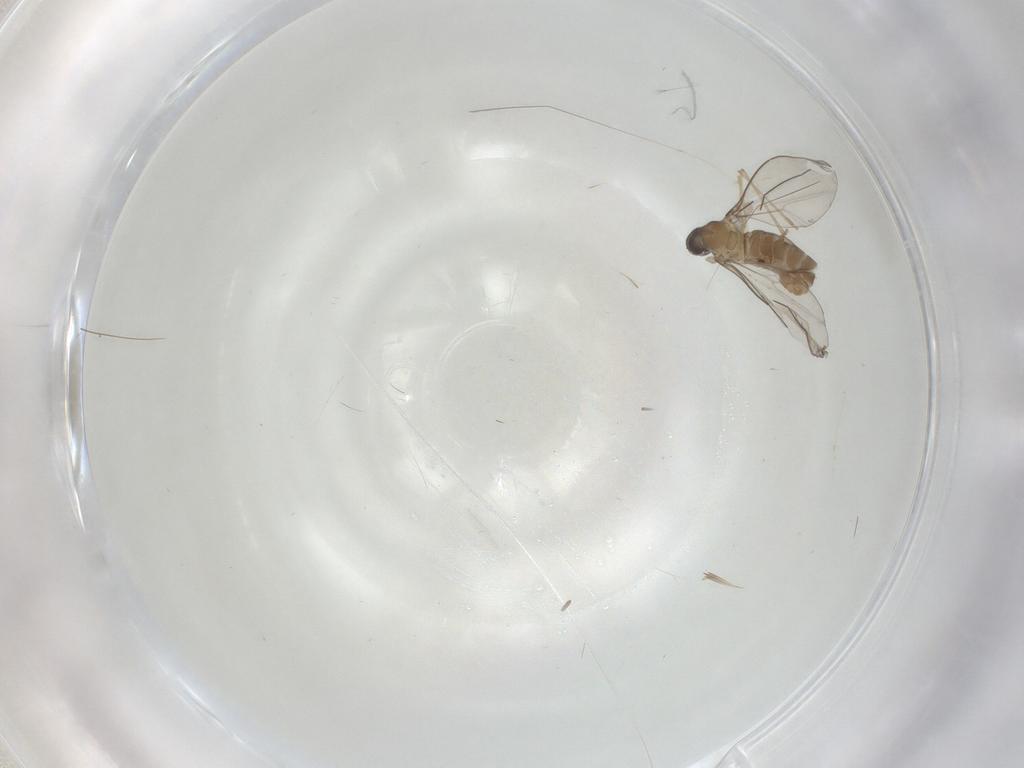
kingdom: Animalia
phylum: Arthropoda
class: Insecta
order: Diptera
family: Cecidomyiidae
